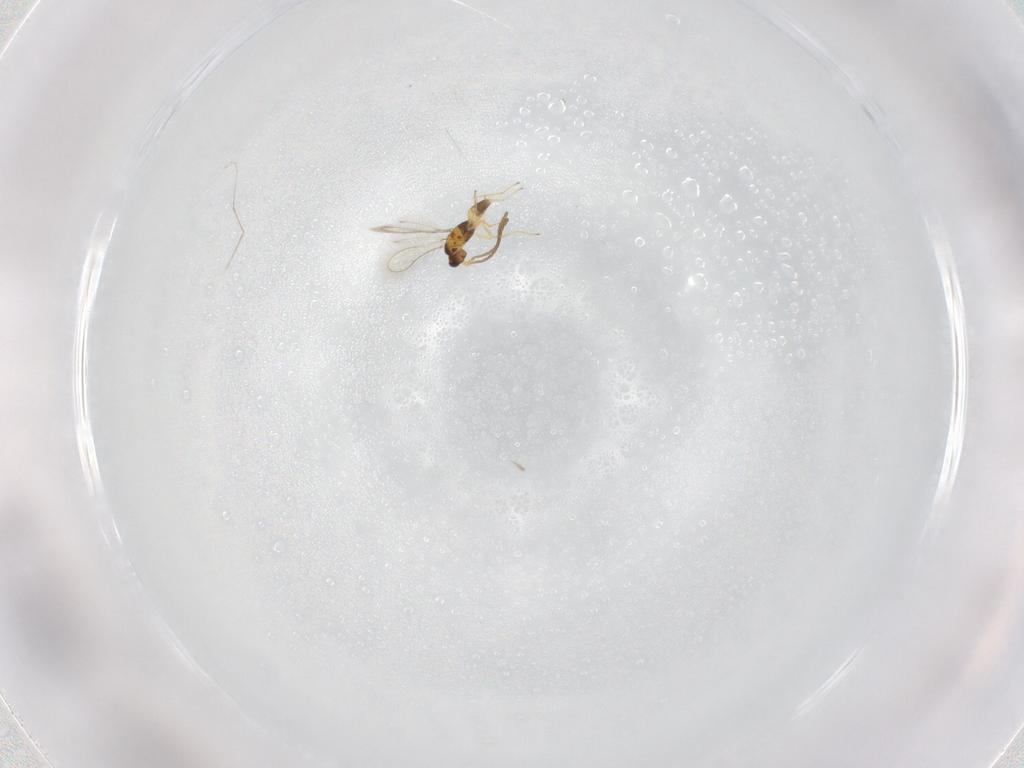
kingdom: Animalia
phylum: Arthropoda
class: Insecta
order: Hymenoptera
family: Mymaridae
